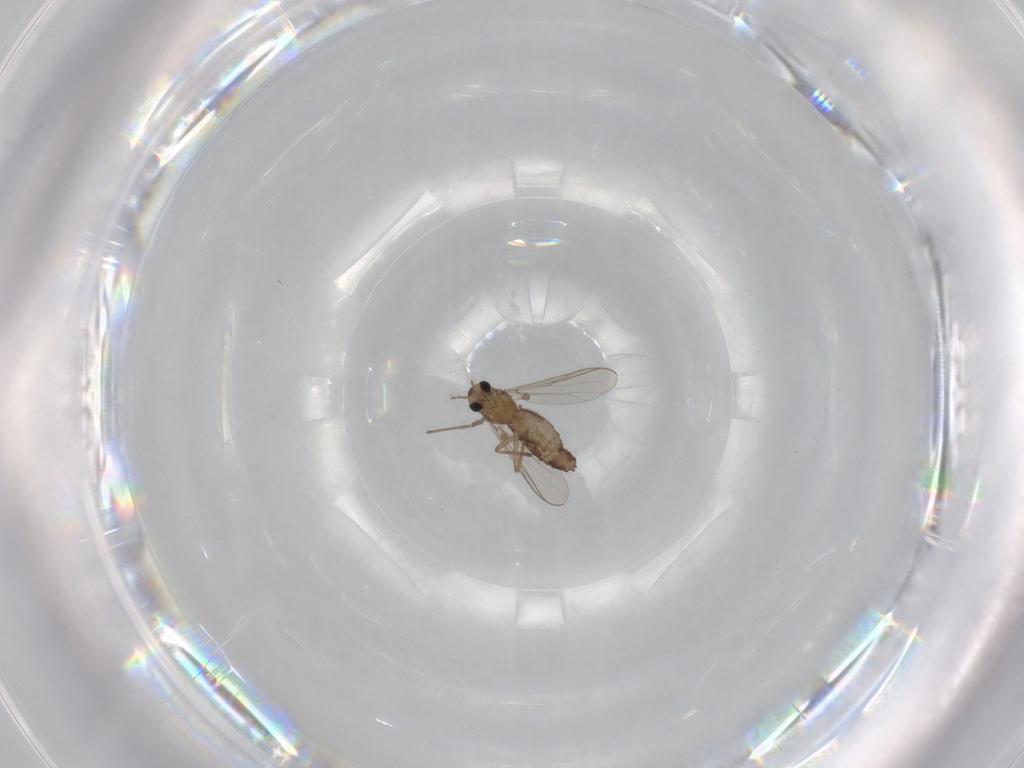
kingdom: Animalia
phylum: Arthropoda
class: Insecta
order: Diptera
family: Chironomidae
